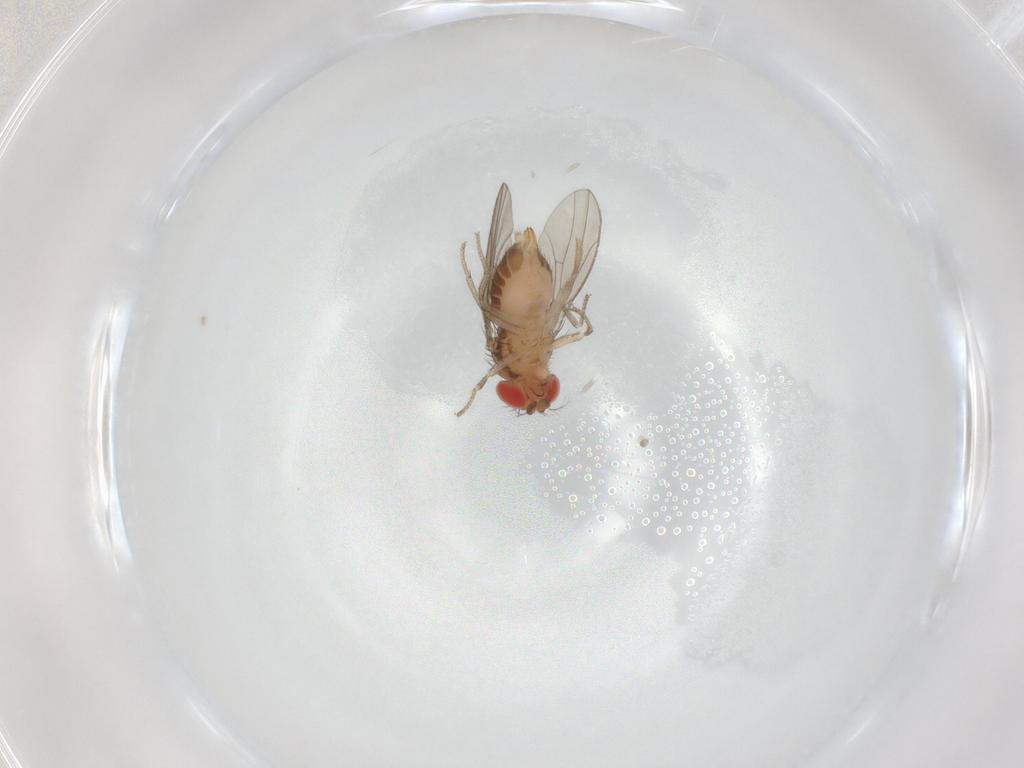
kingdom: Animalia
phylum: Arthropoda
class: Insecta
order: Diptera
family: Drosophilidae
